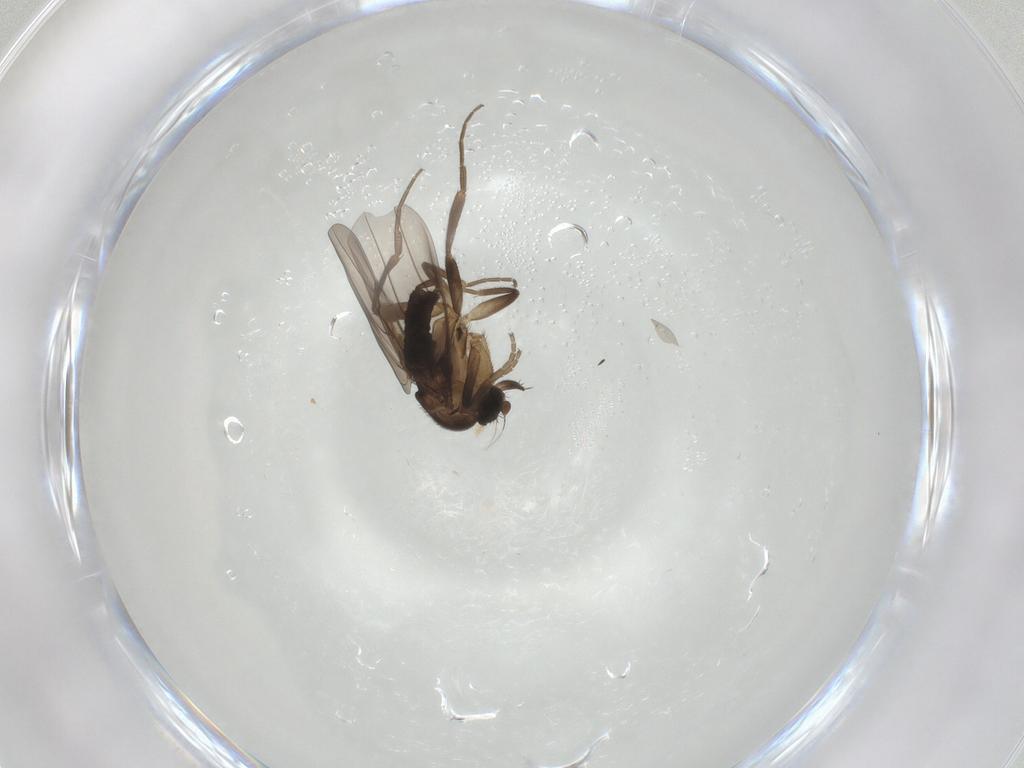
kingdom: Animalia
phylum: Arthropoda
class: Insecta
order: Diptera
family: Phoridae
